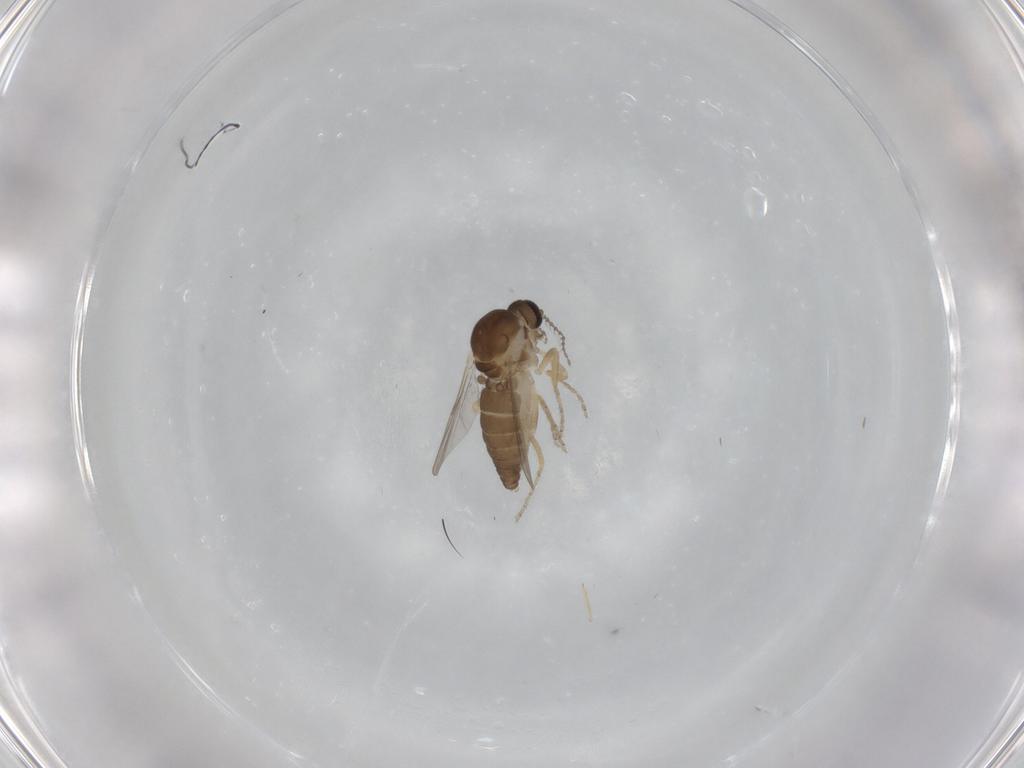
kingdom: Animalia
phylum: Arthropoda
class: Insecta
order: Diptera
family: Ceratopogonidae
